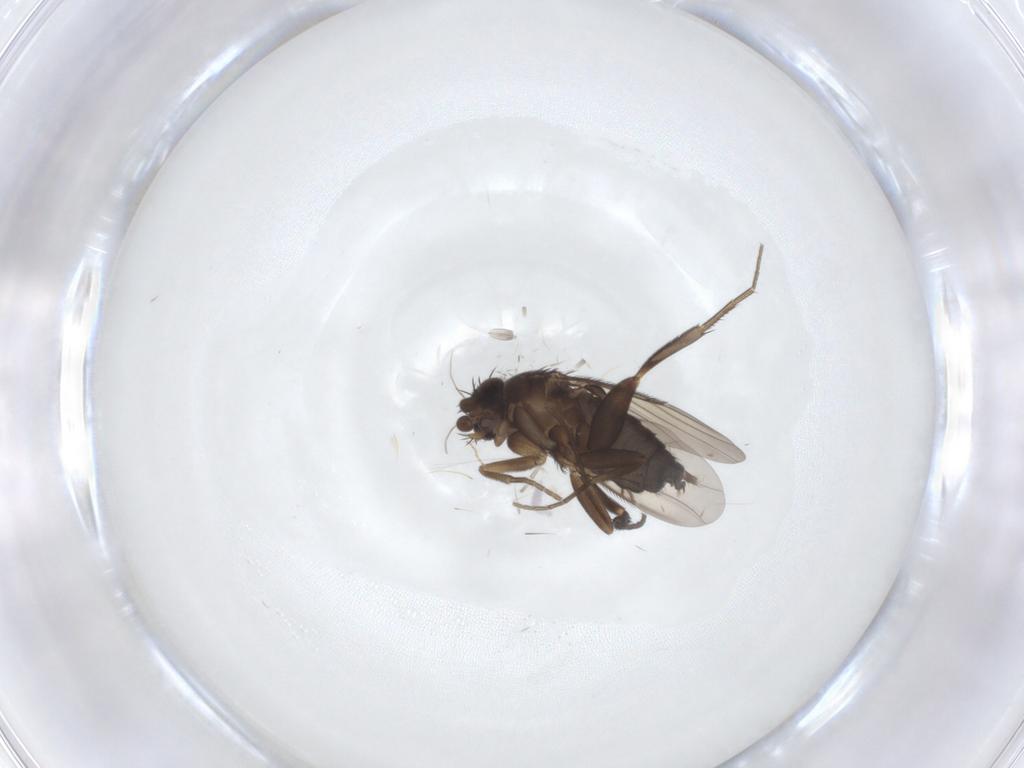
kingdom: Animalia
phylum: Arthropoda
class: Insecta
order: Diptera
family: Phoridae
